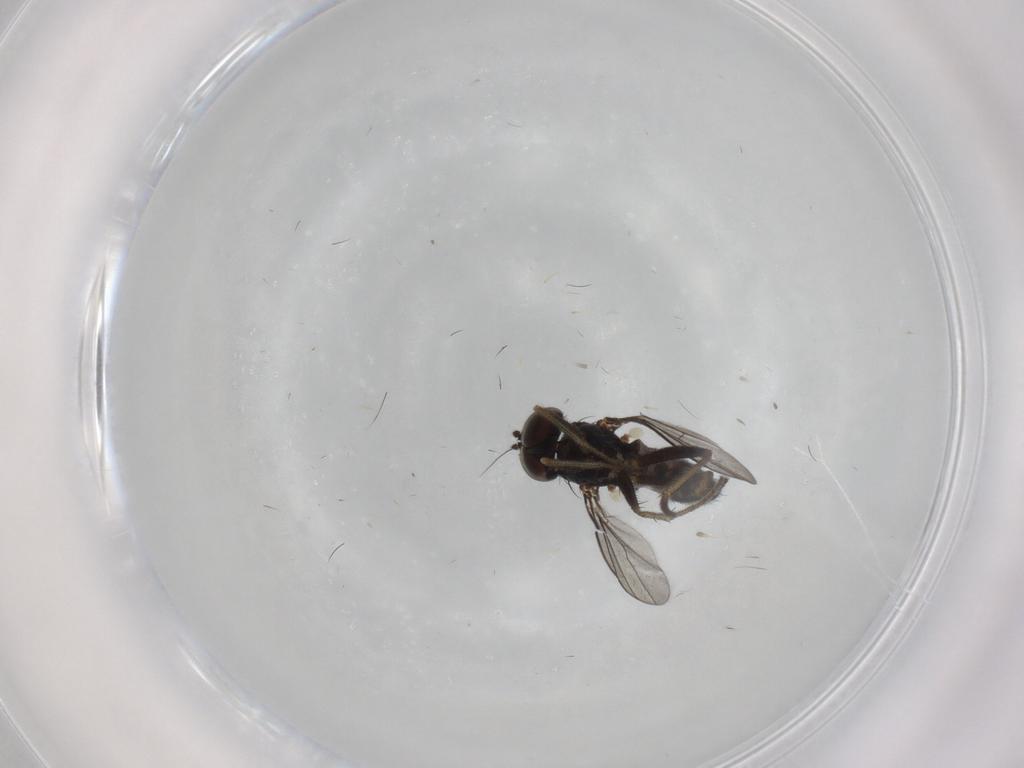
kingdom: Animalia
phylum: Arthropoda
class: Insecta
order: Diptera
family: Dolichopodidae
